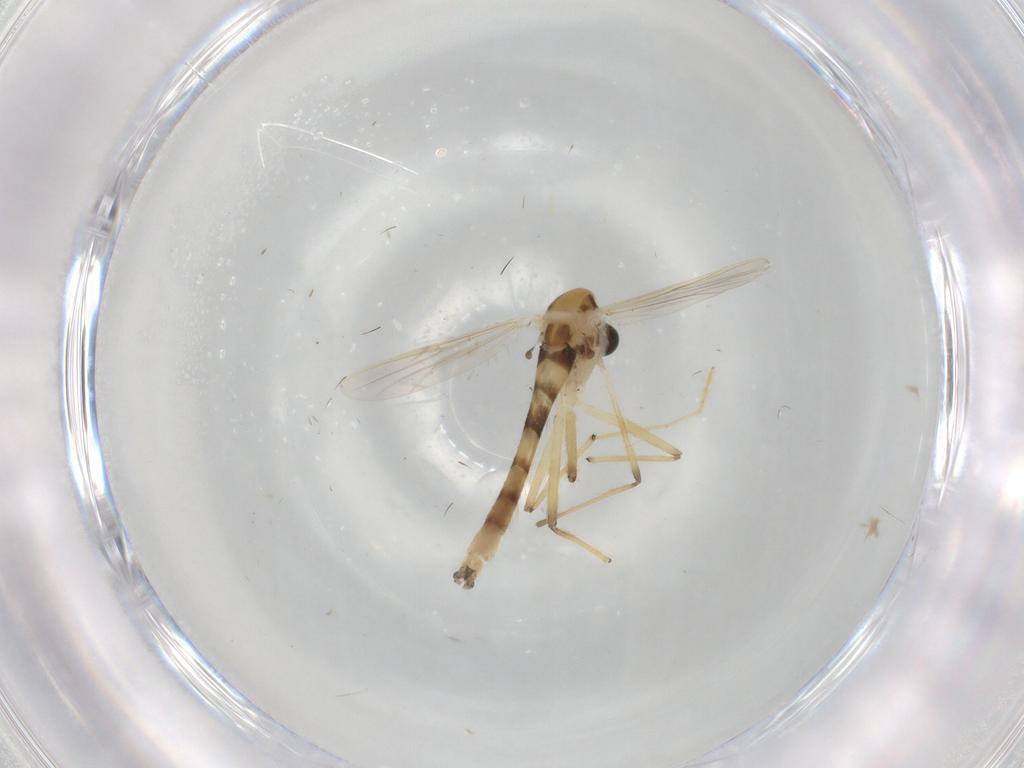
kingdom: Animalia
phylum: Arthropoda
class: Insecta
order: Diptera
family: Chironomidae
